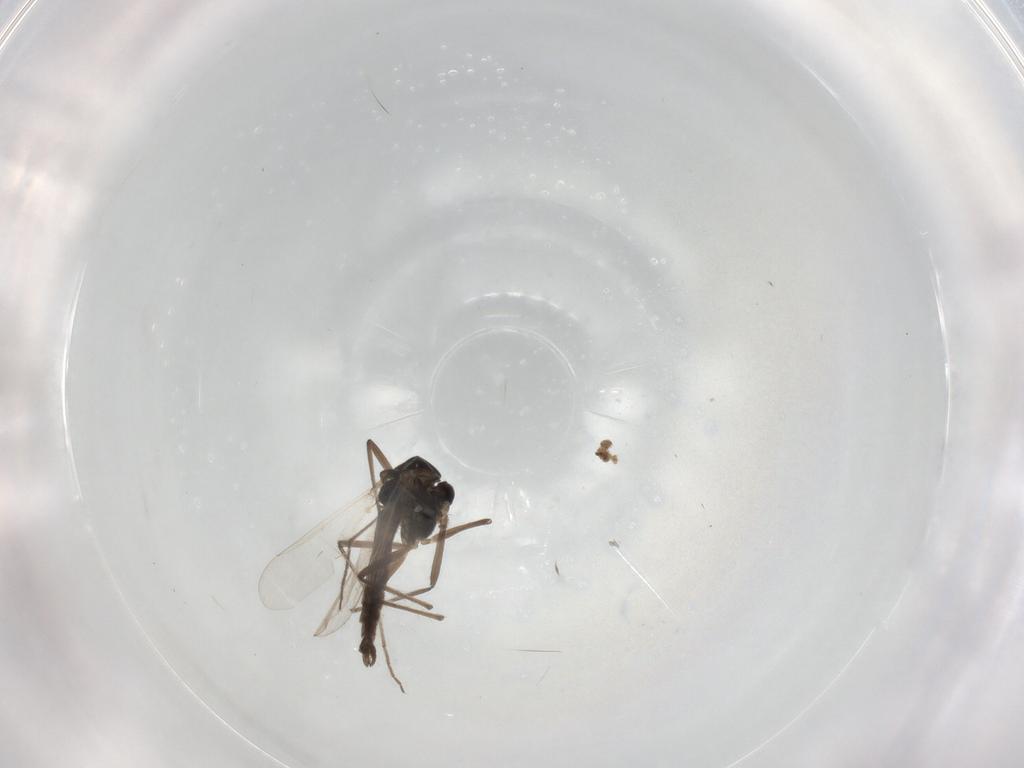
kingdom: Animalia
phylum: Arthropoda
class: Insecta
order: Diptera
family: Chironomidae
